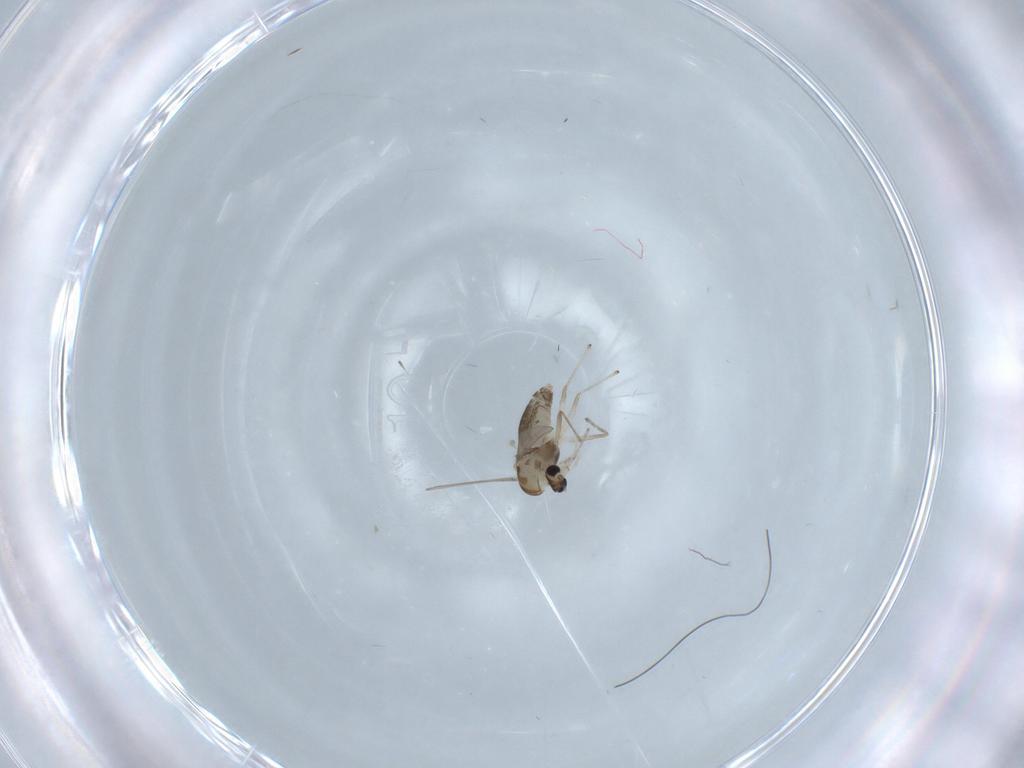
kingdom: Animalia
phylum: Arthropoda
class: Insecta
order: Diptera
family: Chironomidae
